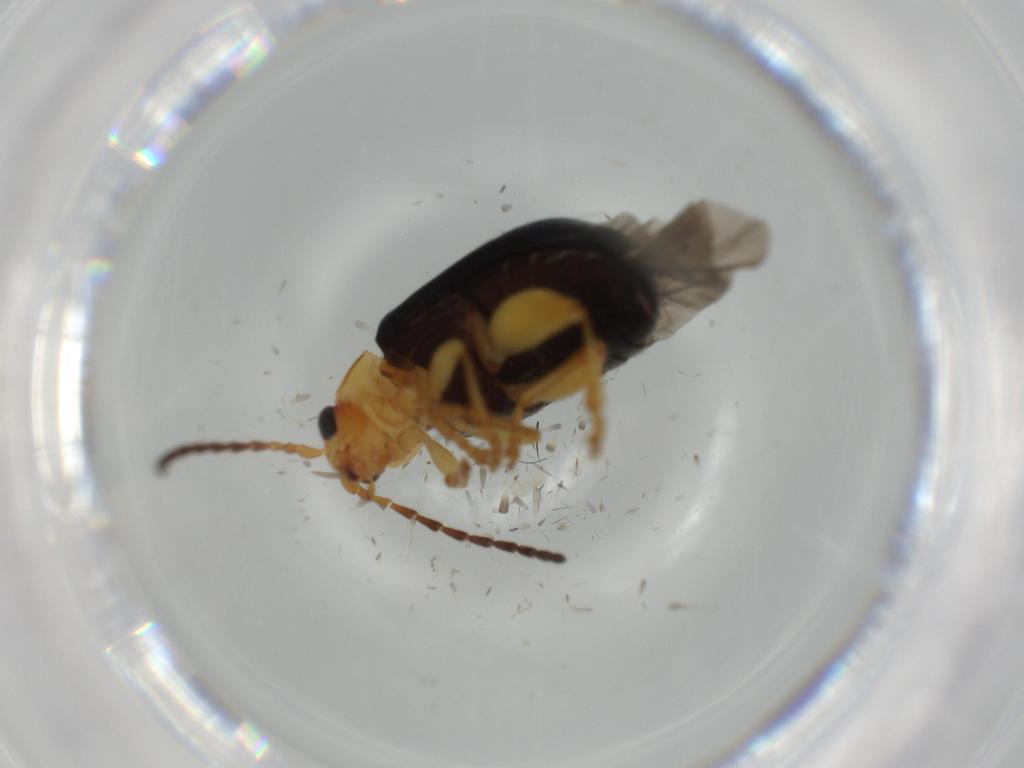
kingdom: Animalia
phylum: Arthropoda
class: Insecta
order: Coleoptera
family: Chrysomelidae
